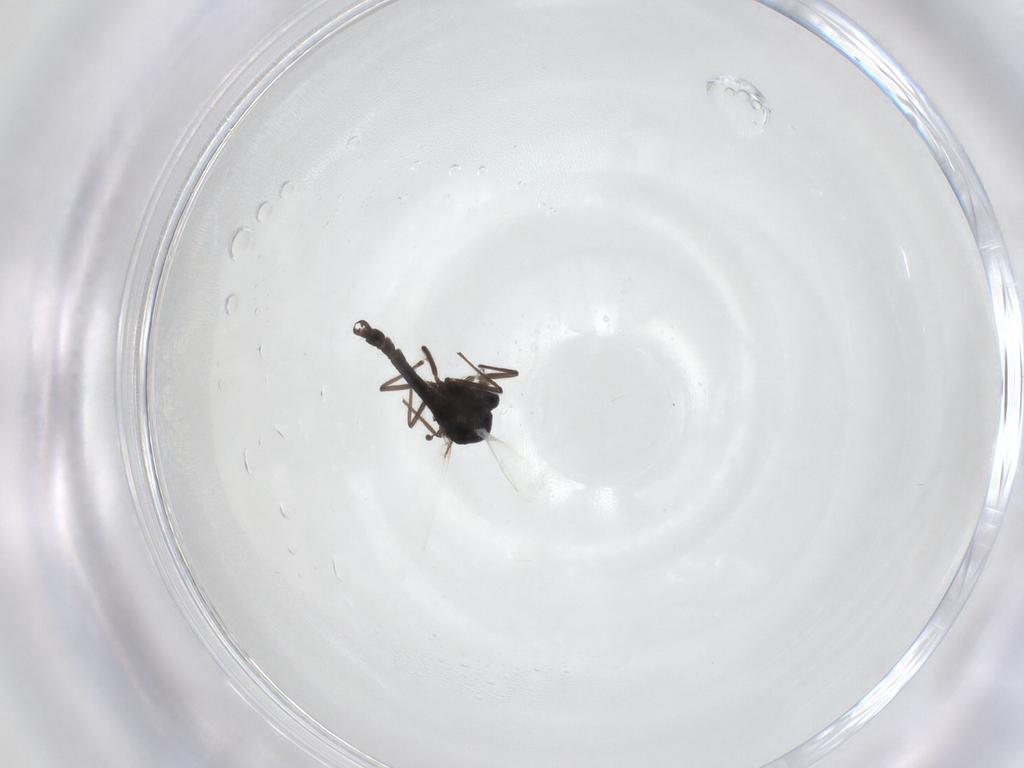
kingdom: Animalia
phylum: Arthropoda
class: Insecta
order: Diptera
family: Chironomidae
